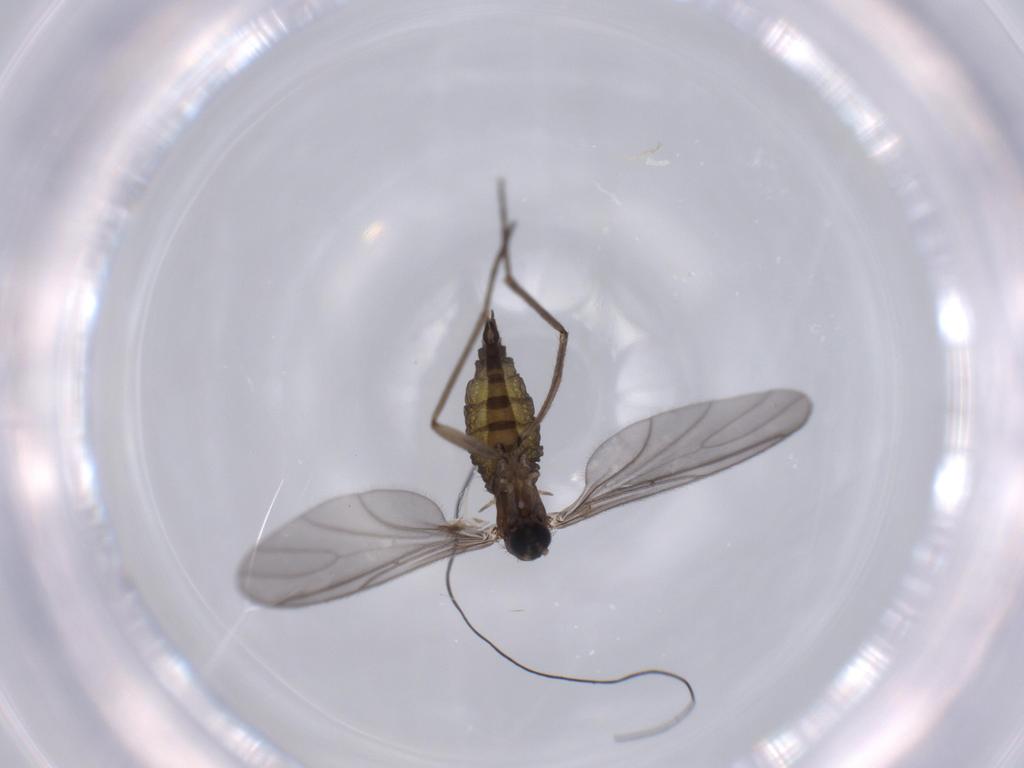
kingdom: Animalia
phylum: Arthropoda
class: Insecta
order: Diptera
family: Sciaridae
